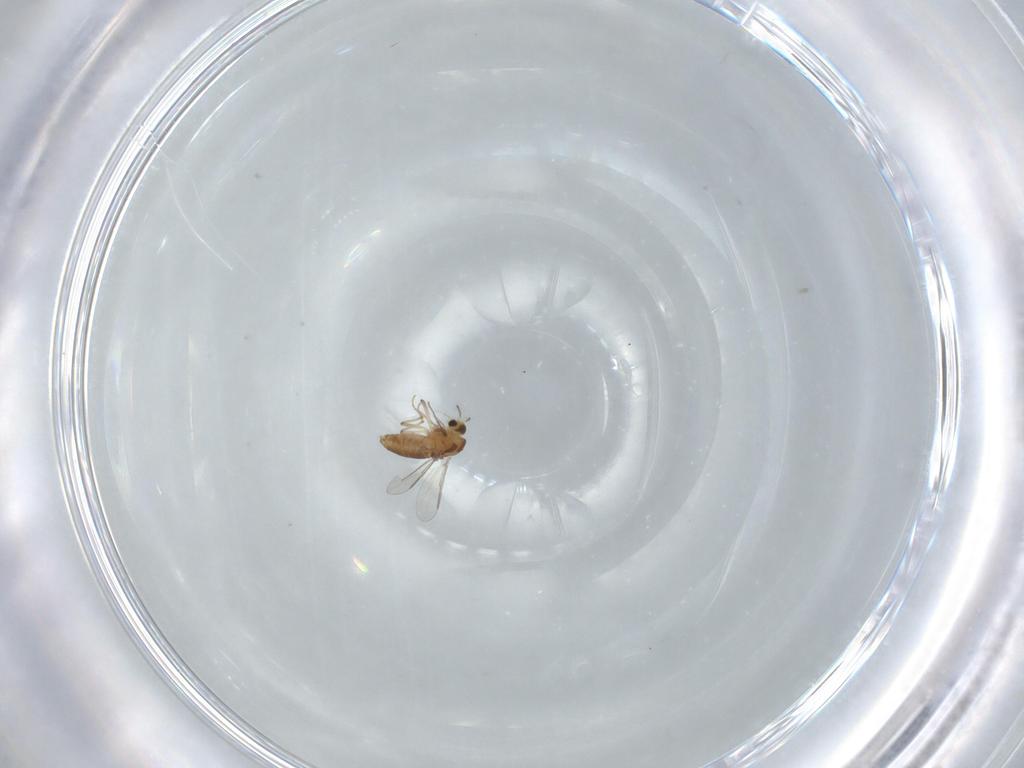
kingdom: Animalia
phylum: Arthropoda
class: Insecta
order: Diptera
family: Chironomidae
